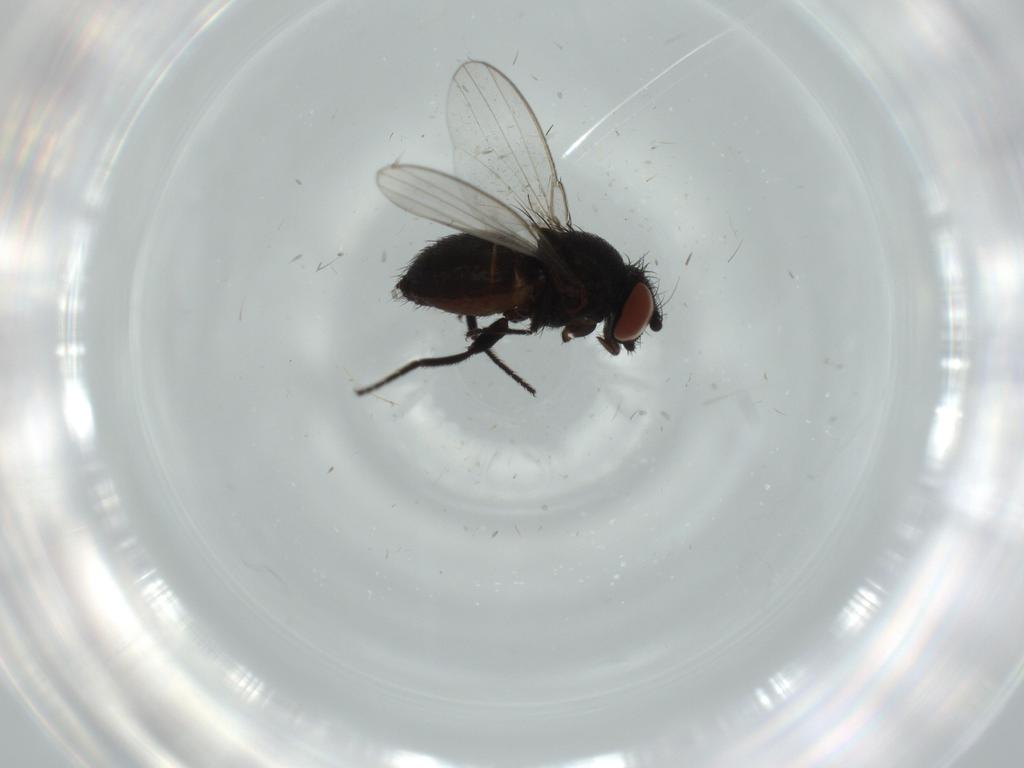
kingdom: Animalia
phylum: Arthropoda
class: Insecta
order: Diptera
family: Milichiidae
